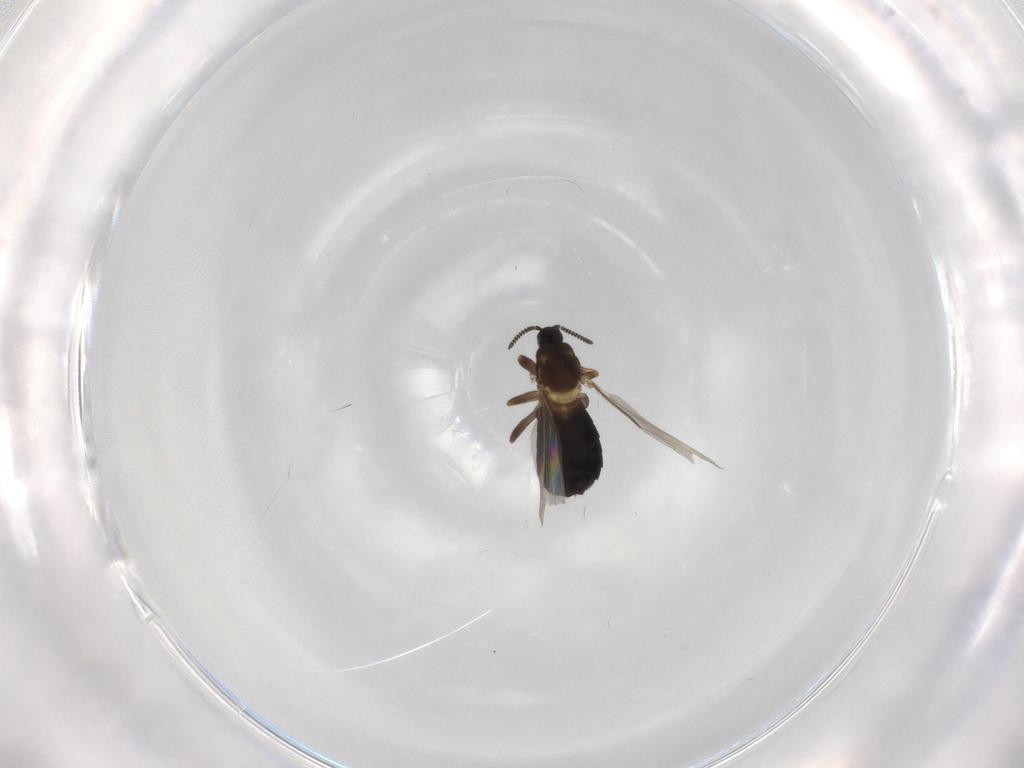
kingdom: Animalia
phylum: Arthropoda
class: Insecta
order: Diptera
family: Scatopsidae
